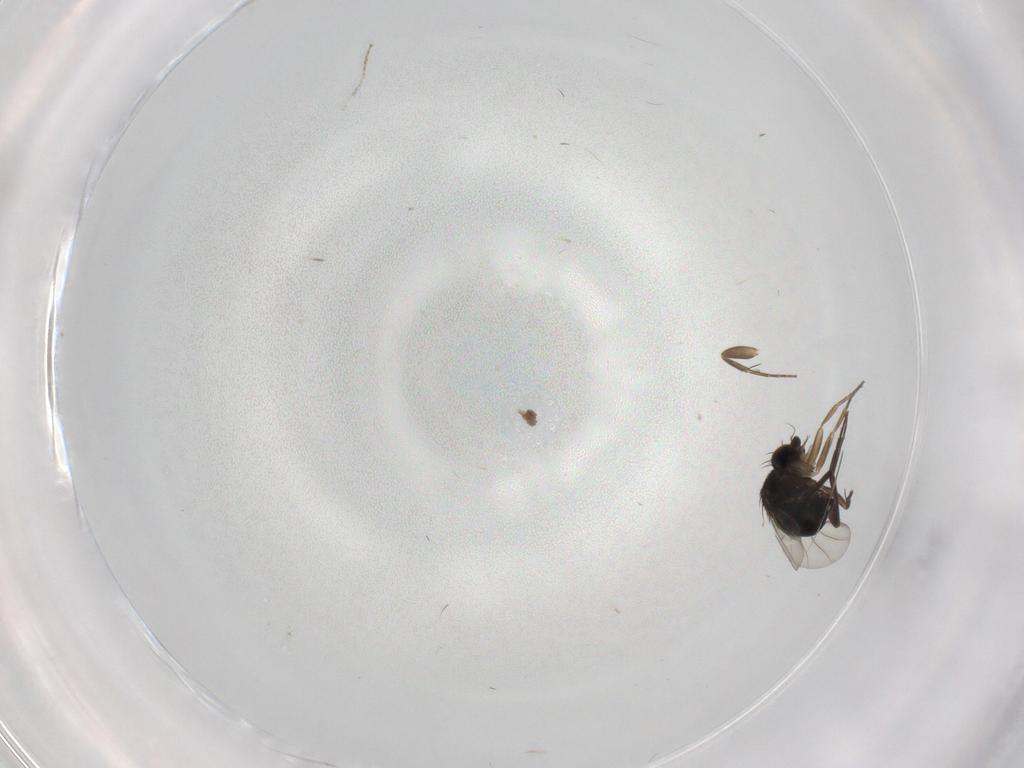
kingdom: Animalia
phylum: Arthropoda
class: Insecta
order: Diptera
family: Phoridae
